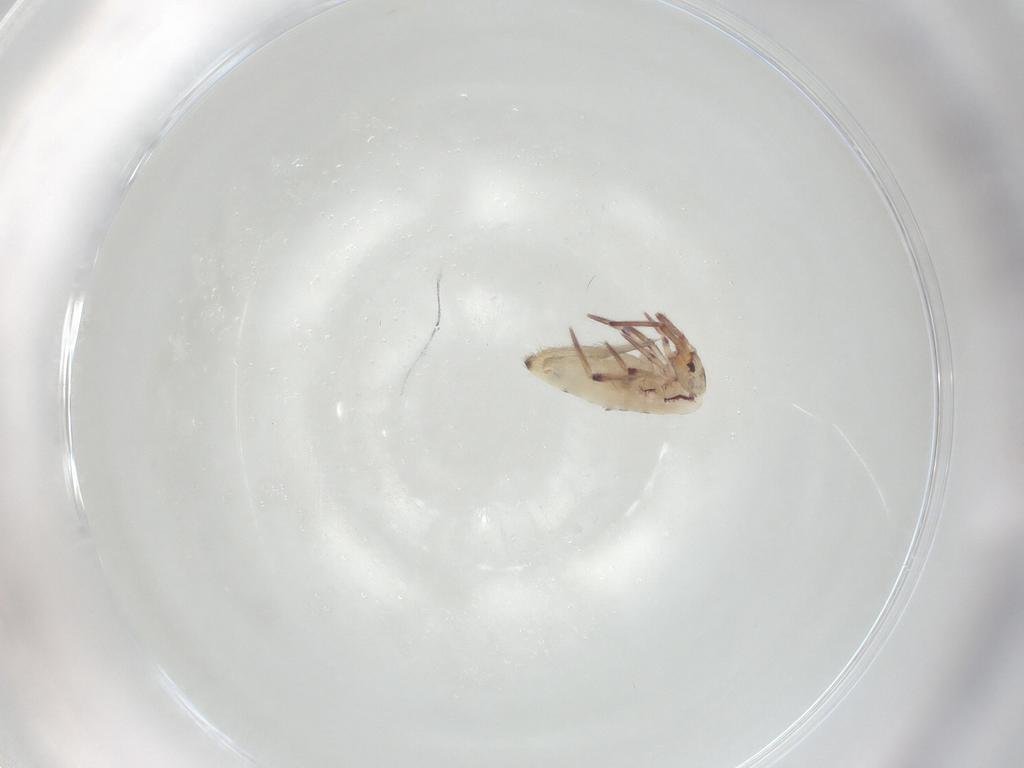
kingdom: Animalia
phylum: Arthropoda
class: Collembola
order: Entomobryomorpha
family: Entomobryidae
